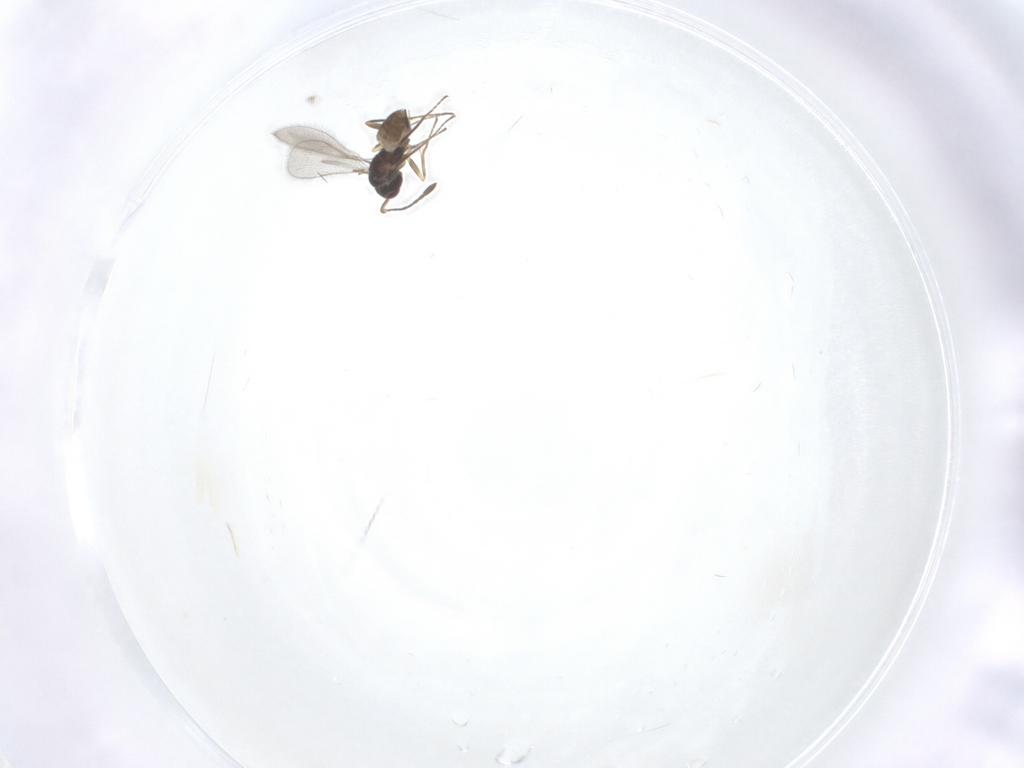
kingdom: Animalia
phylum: Arthropoda
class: Insecta
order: Hymenoptera
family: Mymaridae
